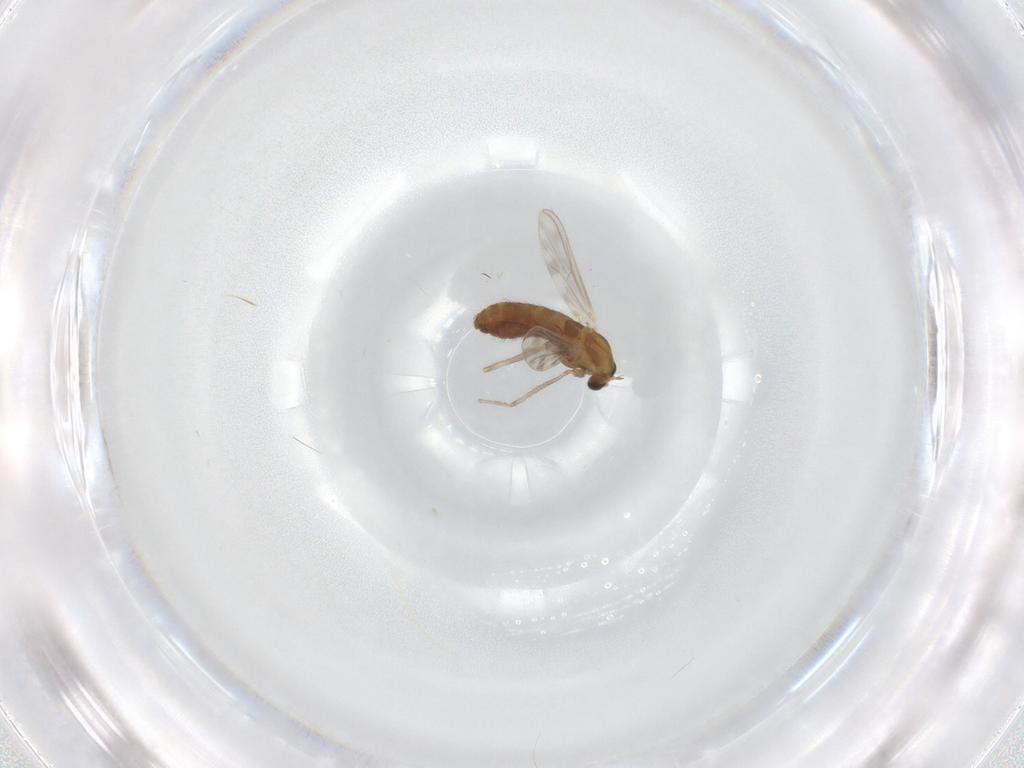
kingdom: Animalia
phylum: Arthropoda
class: Insecta
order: Diptera
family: Chironomidae
